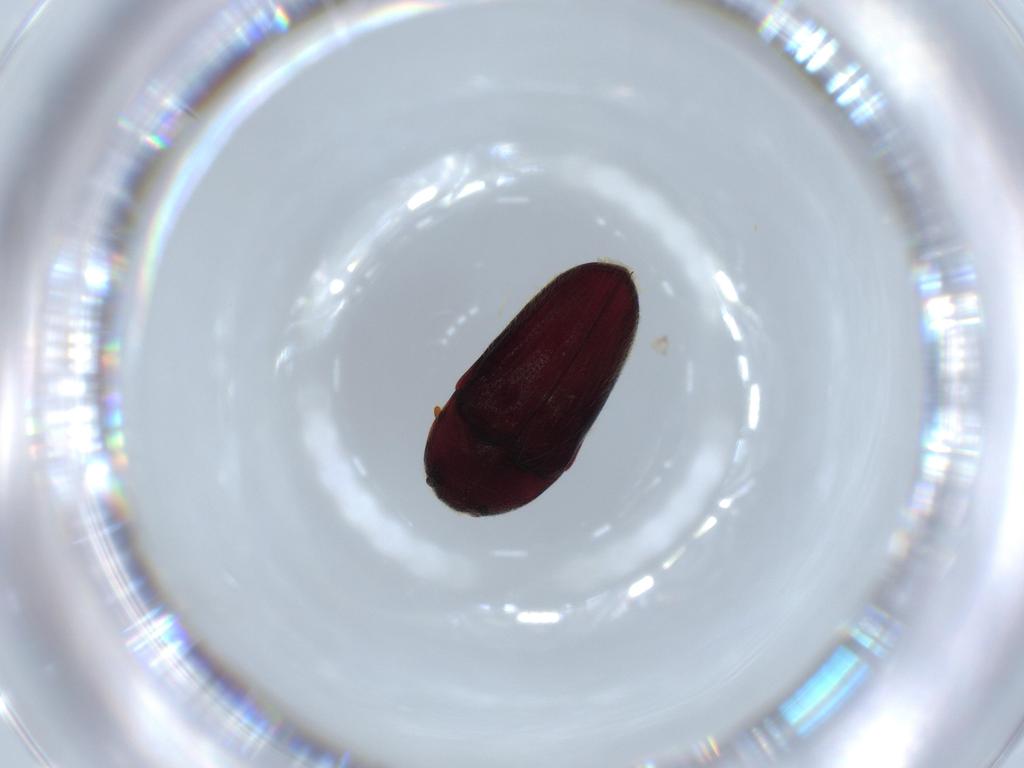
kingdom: Animalia
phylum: Arthropoda
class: Insecta
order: Coleoptera
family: Throscidae
